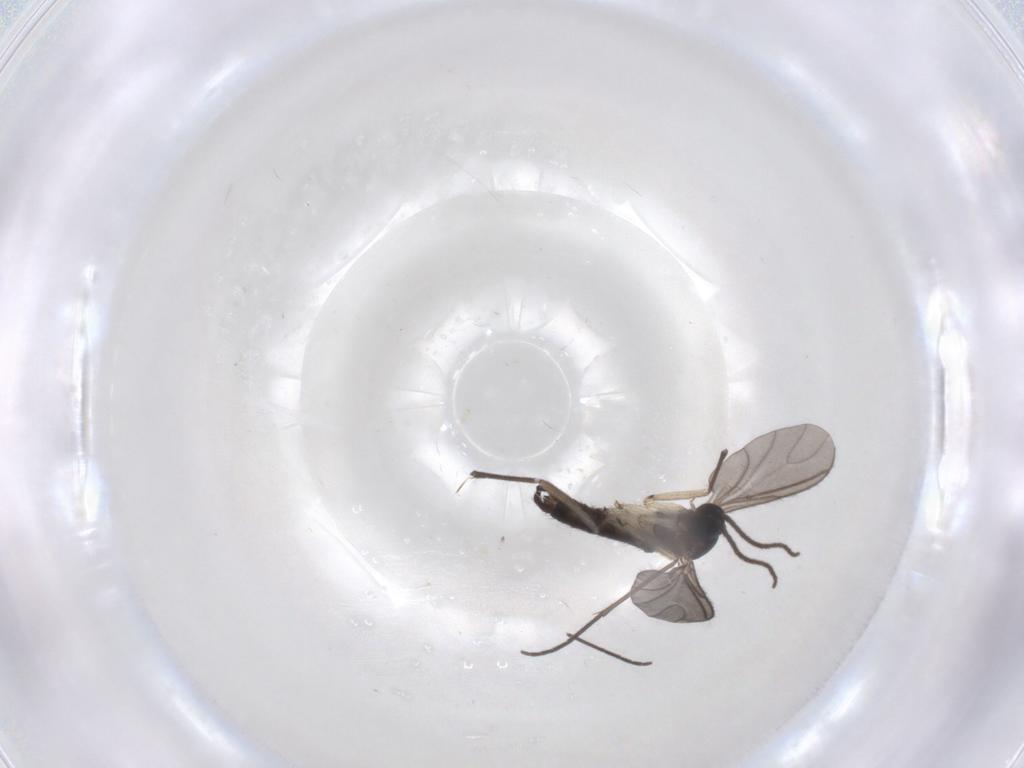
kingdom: Animalia
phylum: Arthropoda
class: Insecta
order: Diptera
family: Sciaridae
